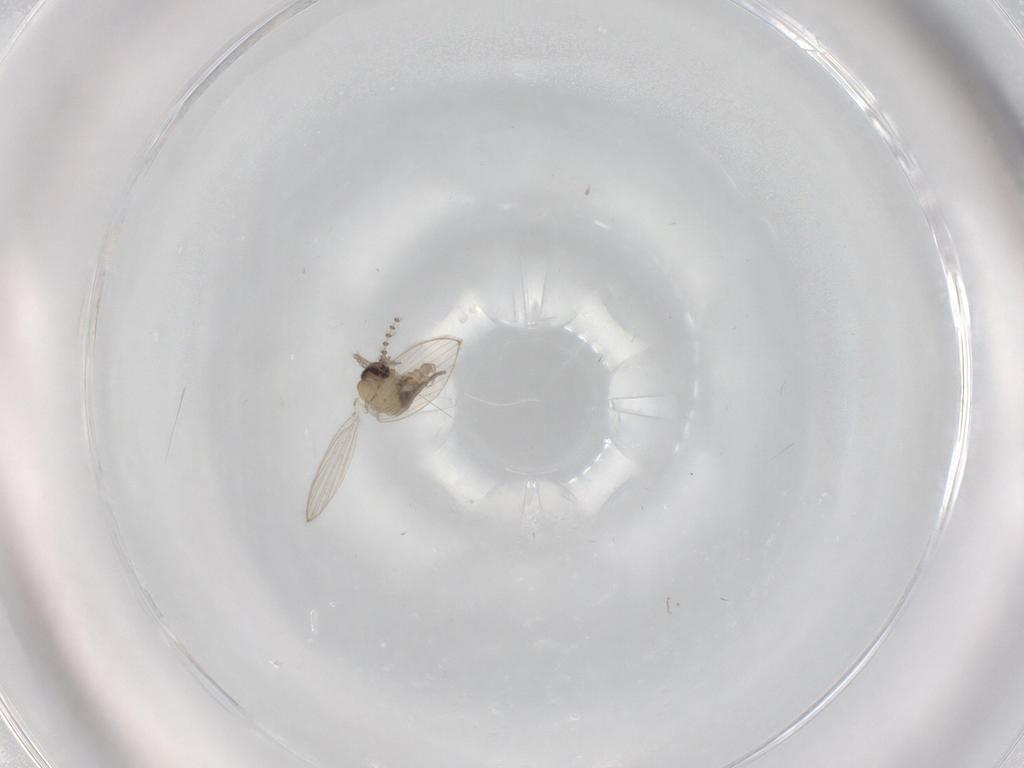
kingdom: Animalia
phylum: Arthropoda
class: Insecta
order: Diptera
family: Psychodidae
